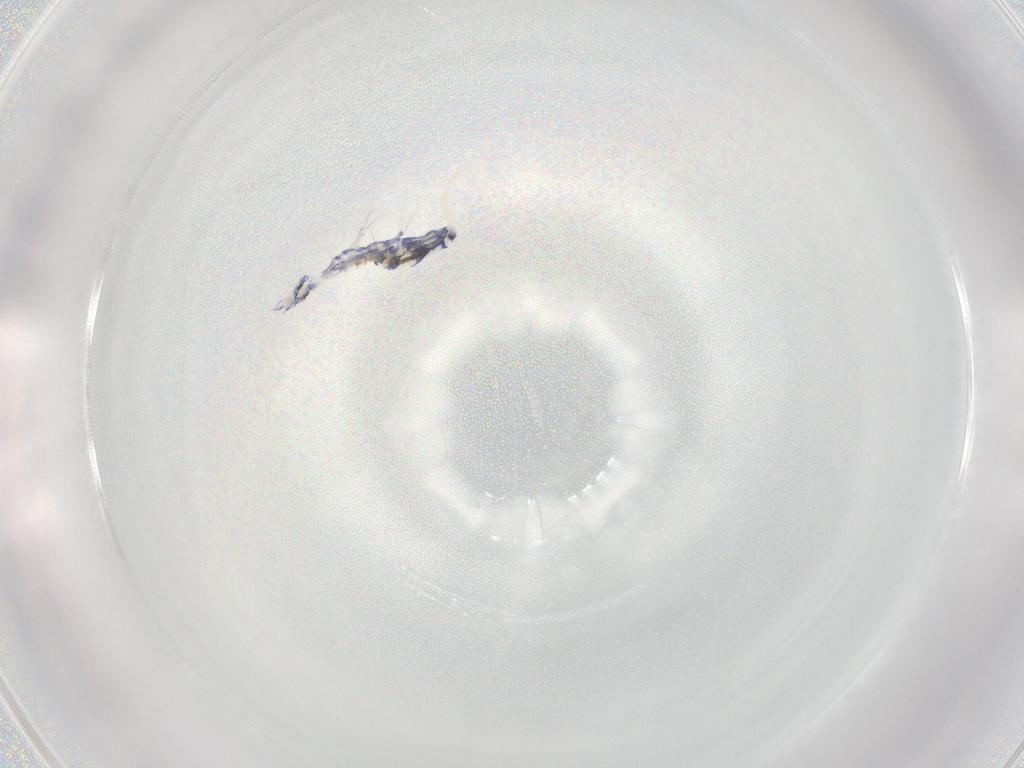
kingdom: Animalia
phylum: Arthropoda
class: Collembola
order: Entomobryomorpha
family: Entomobryidae
